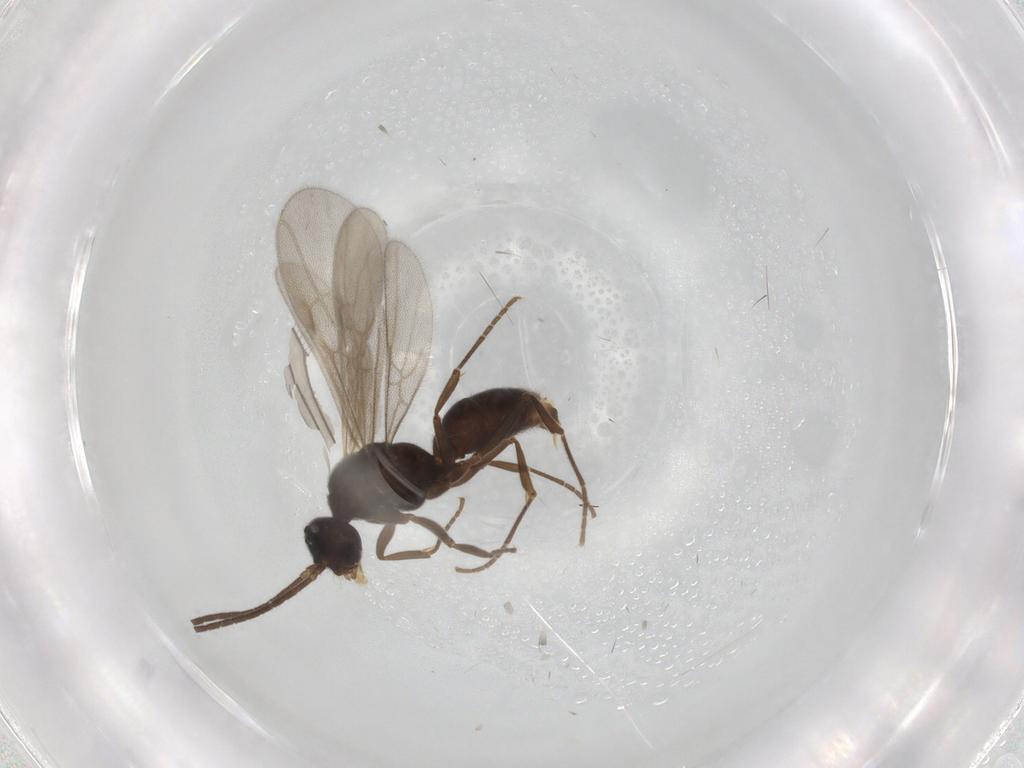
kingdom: Animalia
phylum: Arthropoda
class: Insecta
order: Hymenoptera
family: Formicidae
